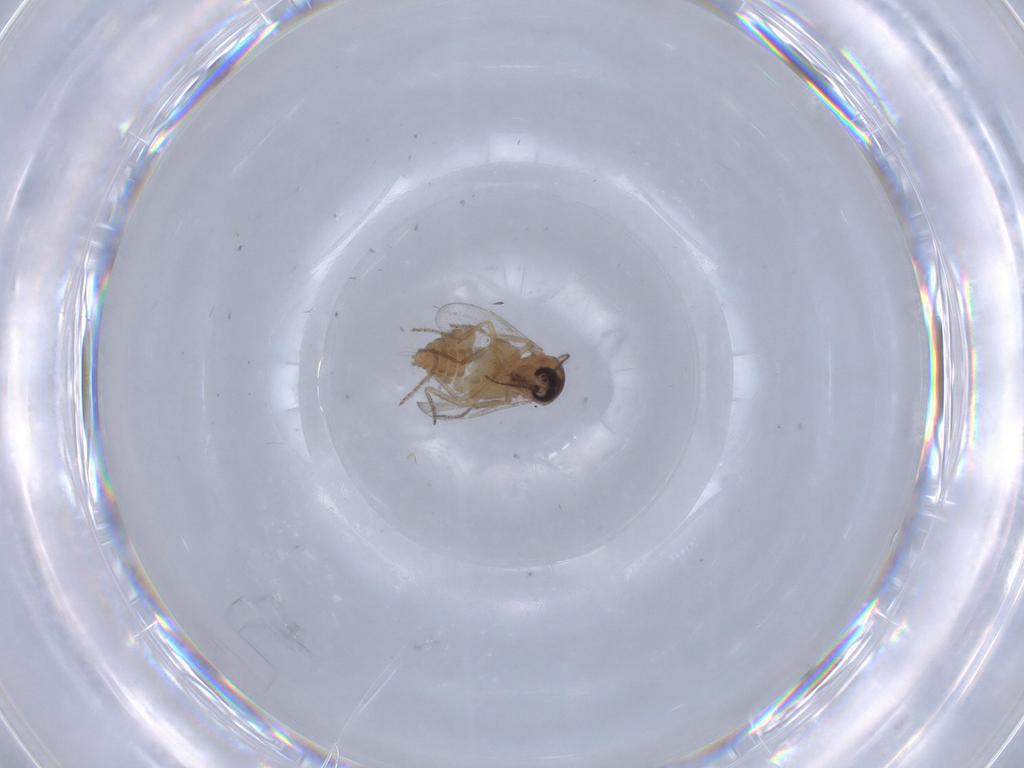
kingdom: Animalia
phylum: Arthropoda
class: Insecta
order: Diptera
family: Ceratopogonidae
